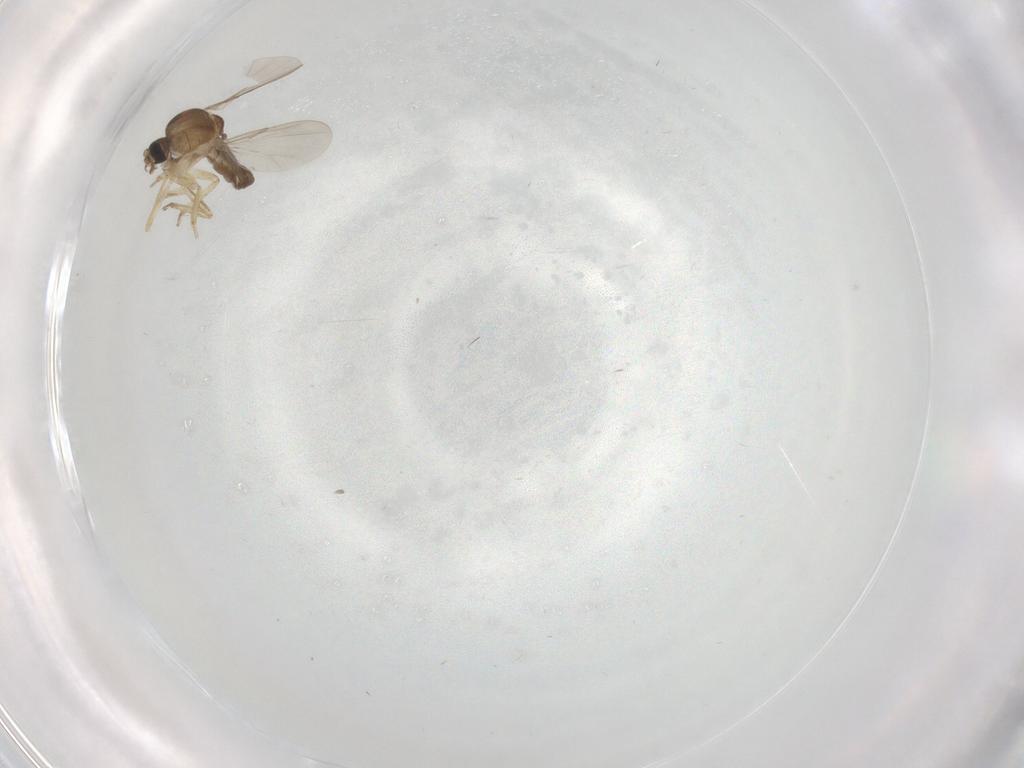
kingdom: Animalia
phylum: Arthropoda
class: Insecta
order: Diptera
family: Ceratopogonidae
